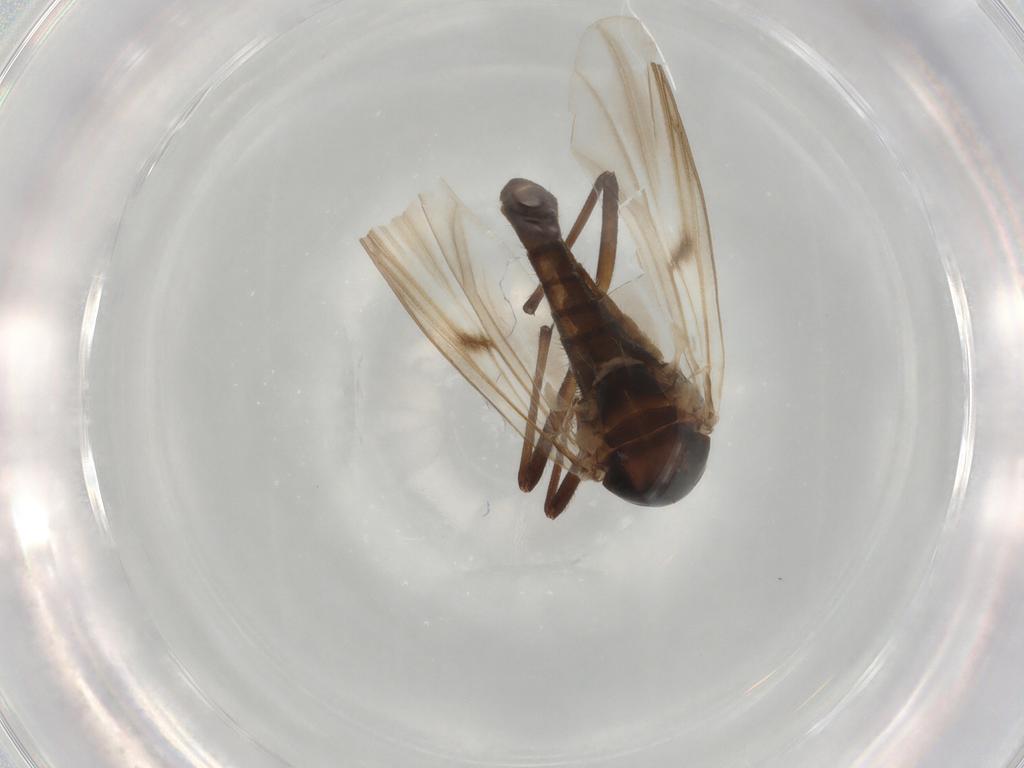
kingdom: Animalia
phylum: Arthropoda
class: Insecta
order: Diptera
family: Chironomidae
